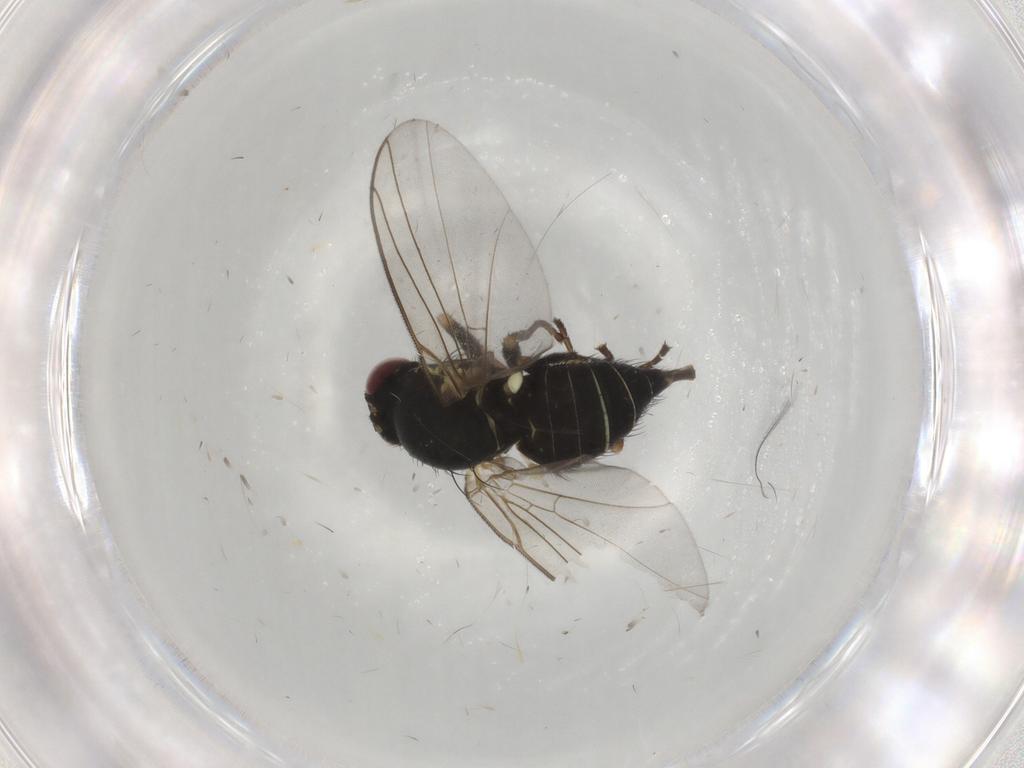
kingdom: Animalia
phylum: Arthropoda
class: Insecta
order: Diptera
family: Agromyzidae
